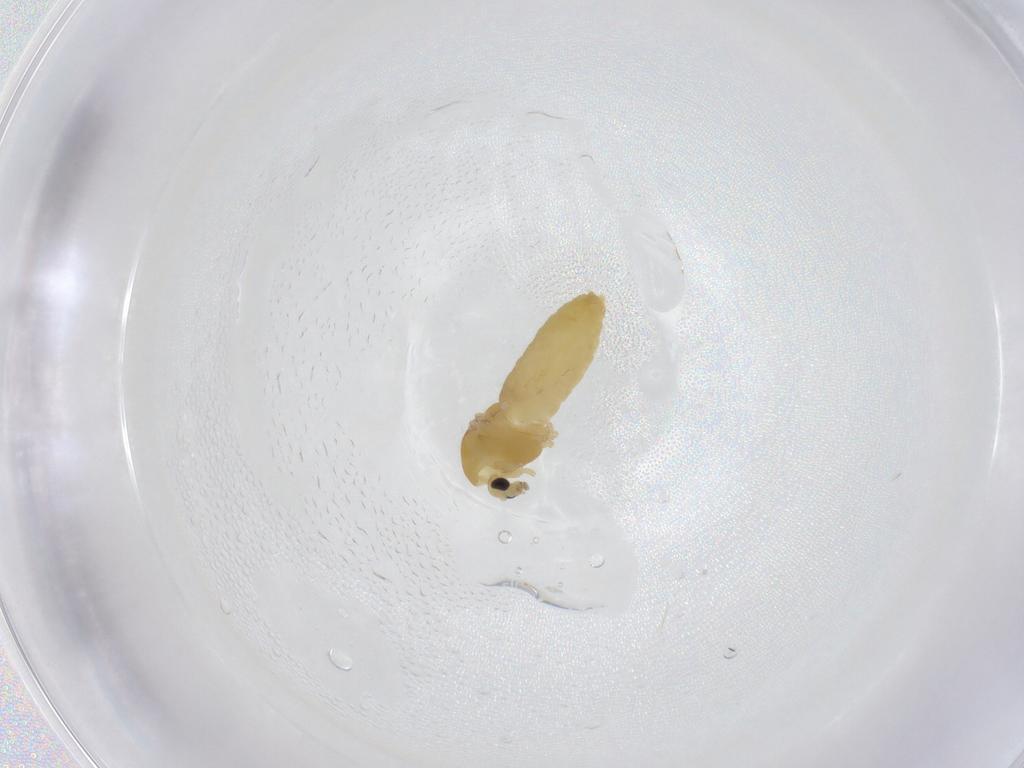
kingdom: Animalia
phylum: Arthropoda
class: Insecta
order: Diptera
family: Chironomidae
